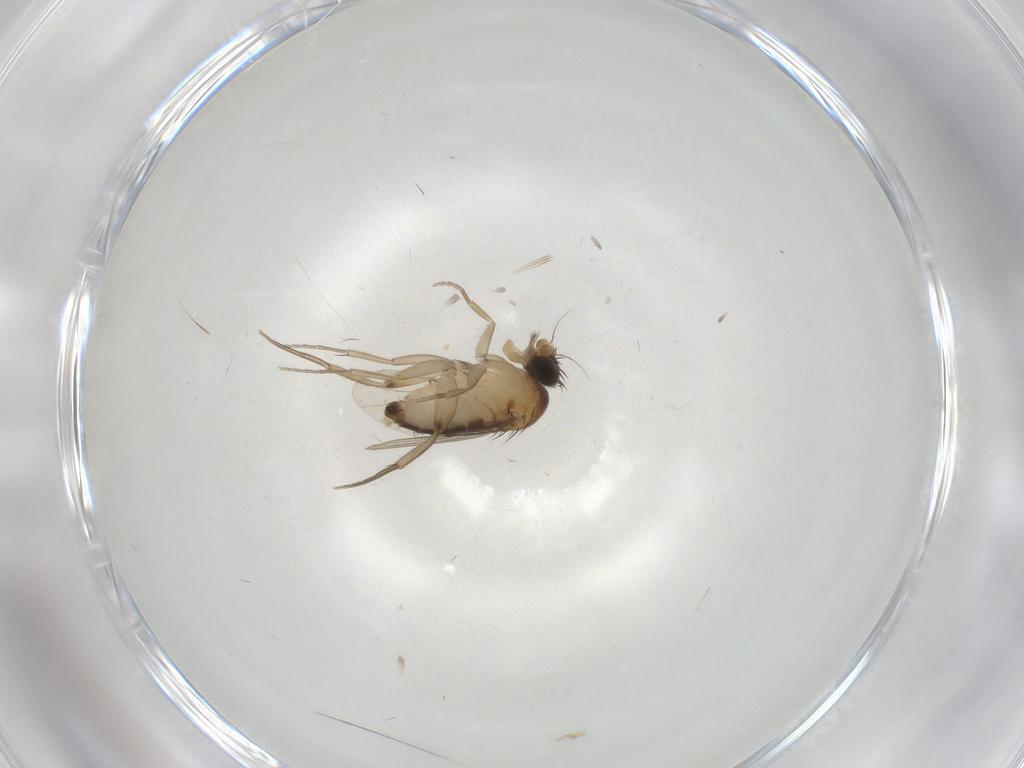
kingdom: Animalia
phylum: Arthropoda
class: Insecta
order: Diptera
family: Phoridae
